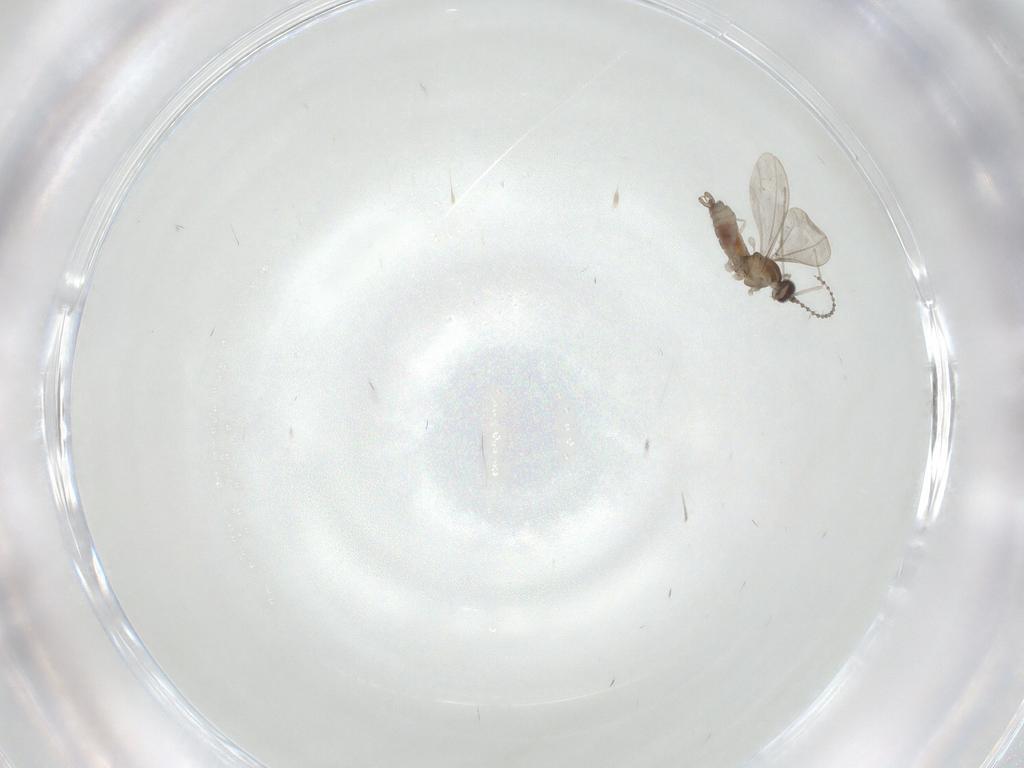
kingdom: Animalia
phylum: Arthropoda
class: Insecta
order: Diptera
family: Cecidomyiidae
